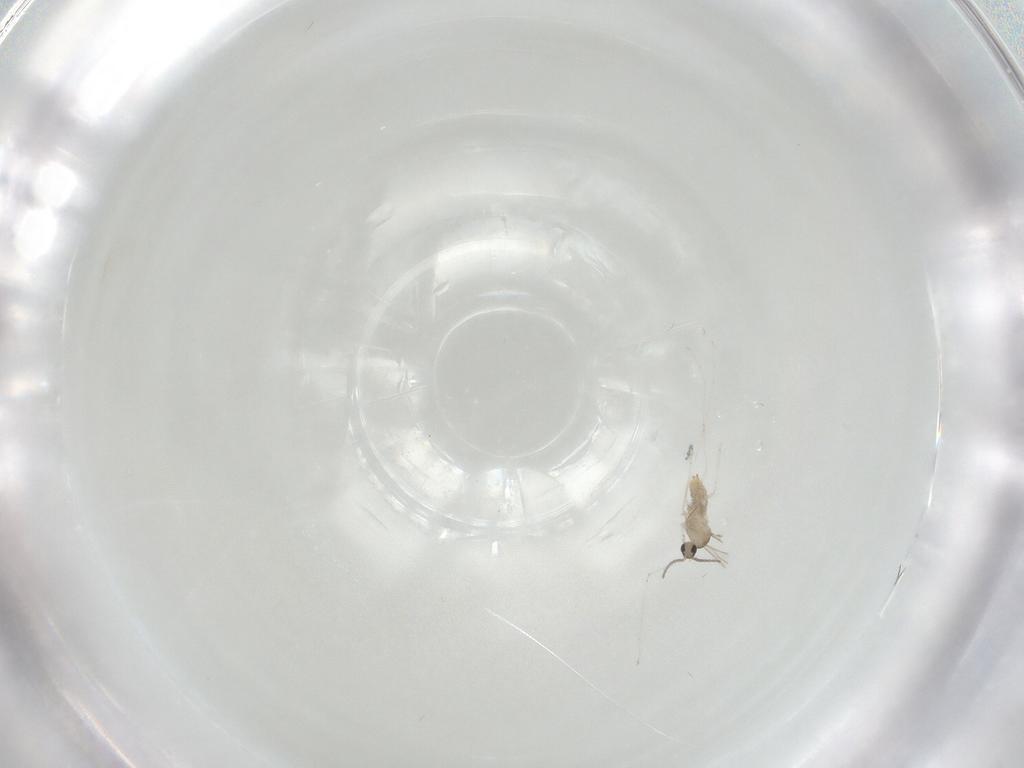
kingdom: Animalia
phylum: Arthropoda
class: Insecta
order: Diptera
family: Cecidomyiidae
